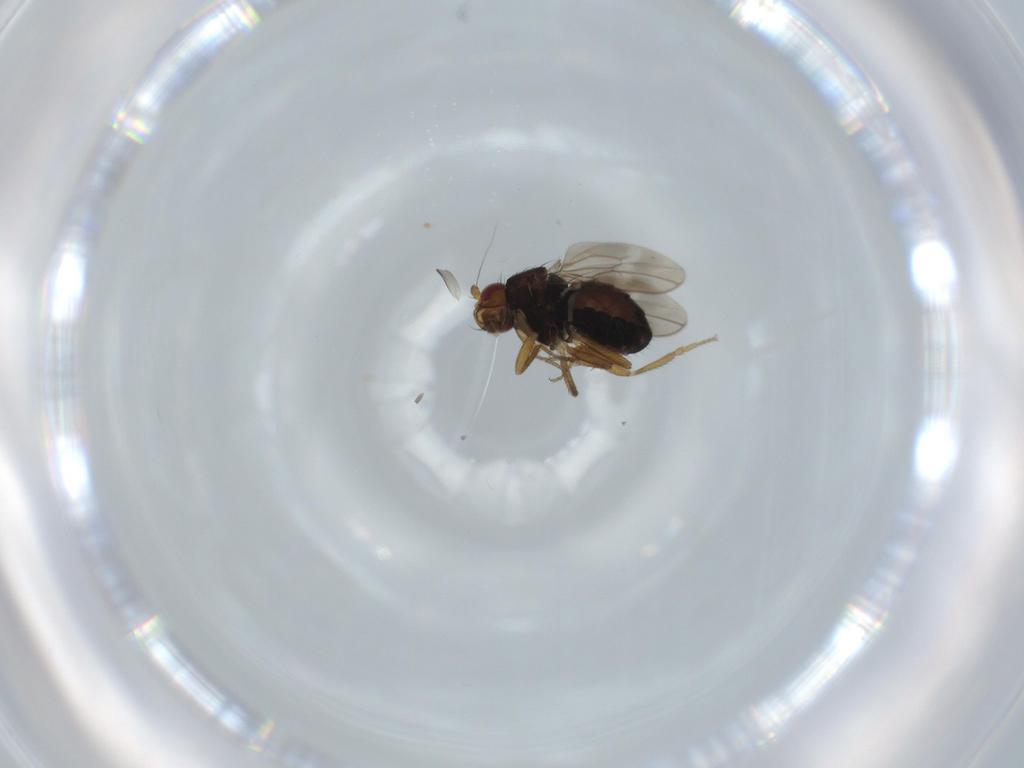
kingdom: Animalia
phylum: Arthropoda
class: Insecta
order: Diptera
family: Sphaeroceridae
